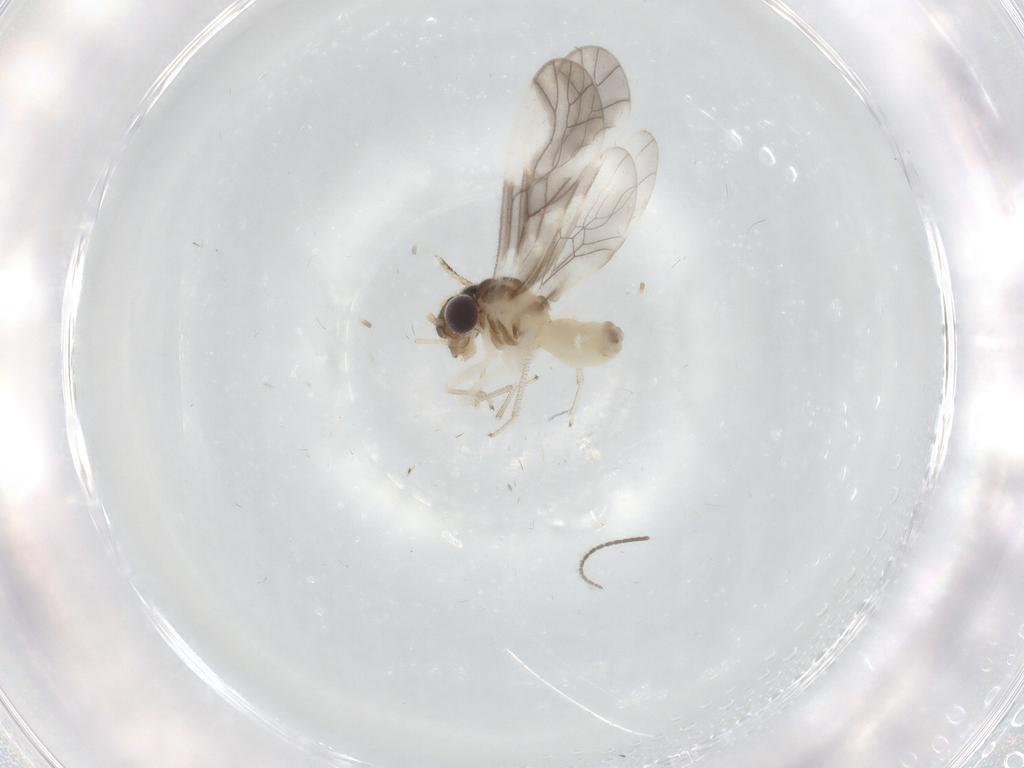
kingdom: Animalia
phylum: Arthropoda
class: Insecta
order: Psocodea
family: Caeciliusidae
